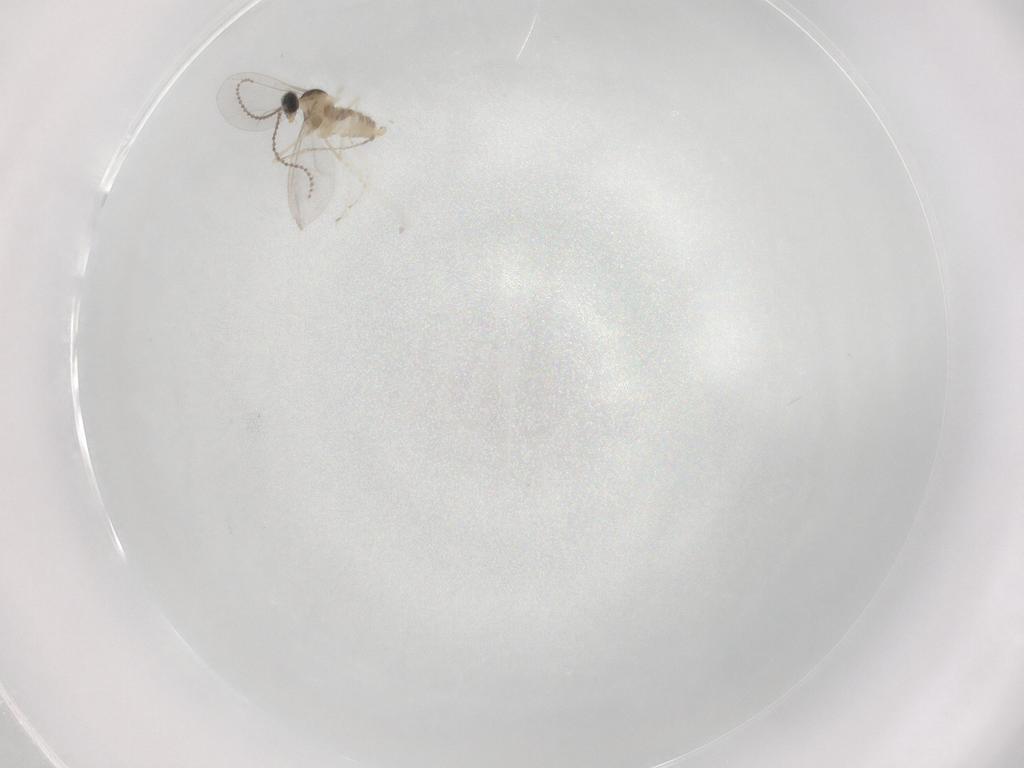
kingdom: Animalia
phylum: Arthropoda
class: Insecta
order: Diptera
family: Cecidomyiidae
